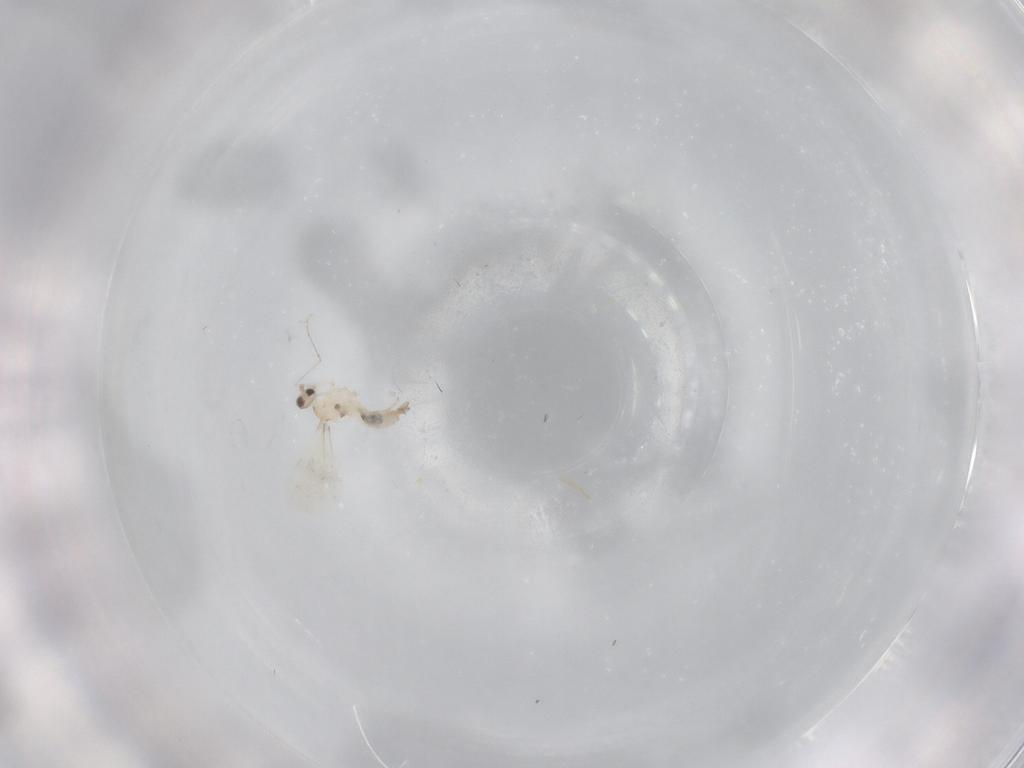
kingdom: Animalia
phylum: Arthropoda
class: Insecta
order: Diptera
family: Cecidomyiidae
